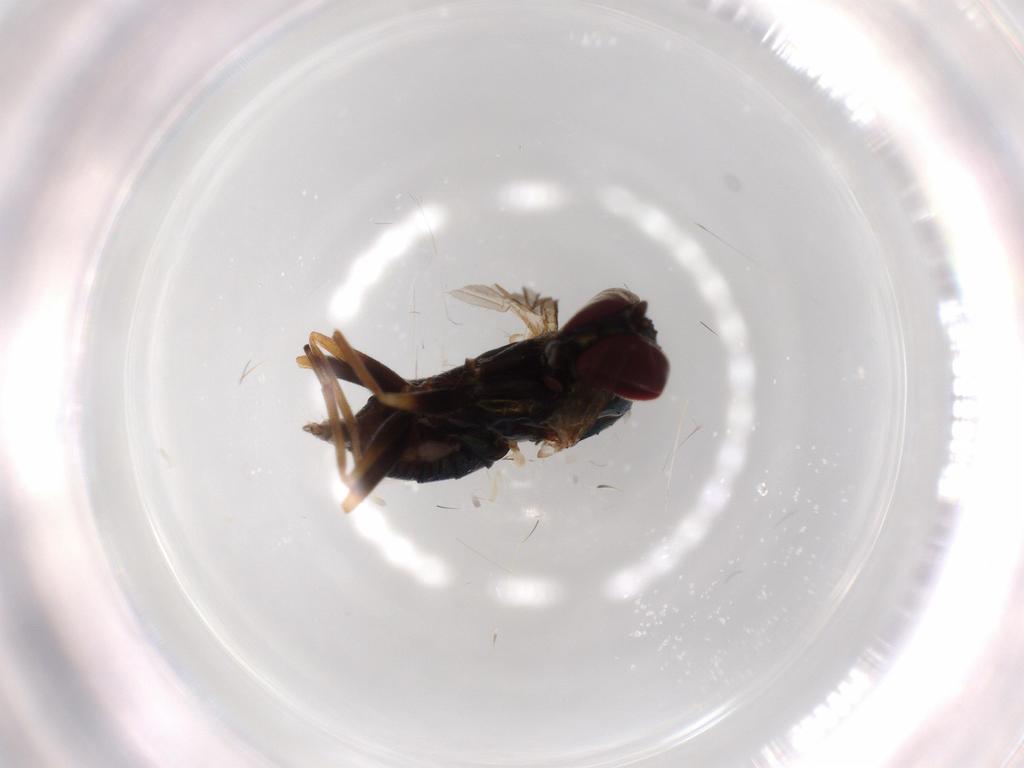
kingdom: Animalia
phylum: Arthropoda
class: Insecta
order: Diptera
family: Dolichopodidae
